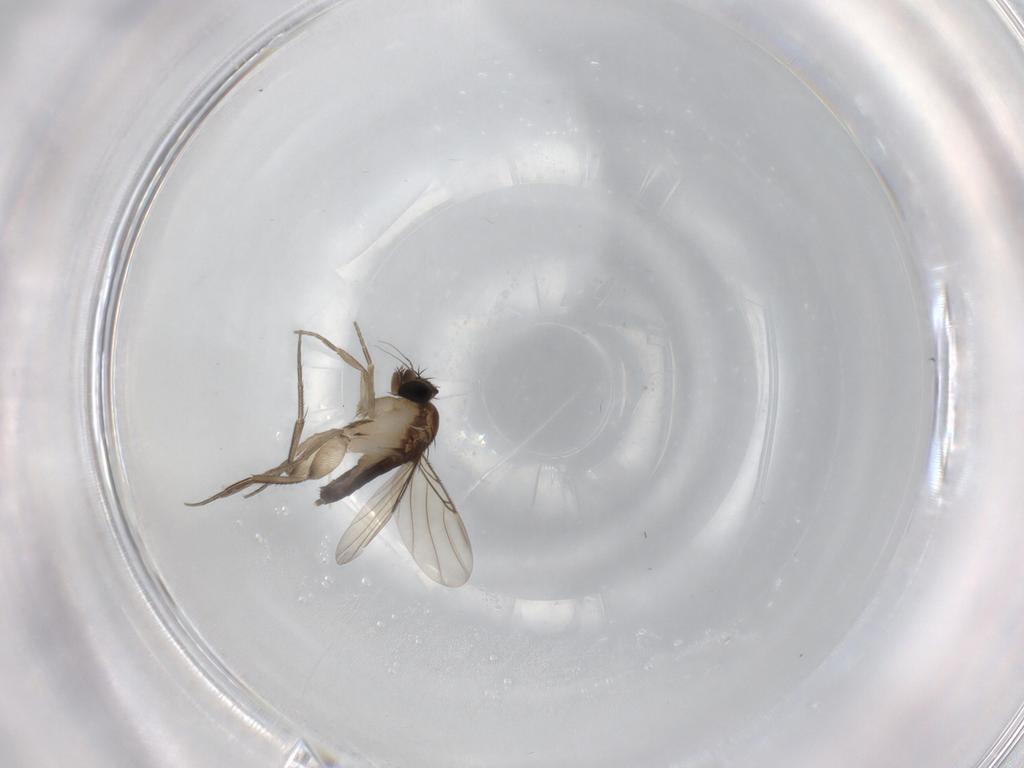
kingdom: Animalia
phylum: Arthropoda
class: Insecta
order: Diptera
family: Phoridae
